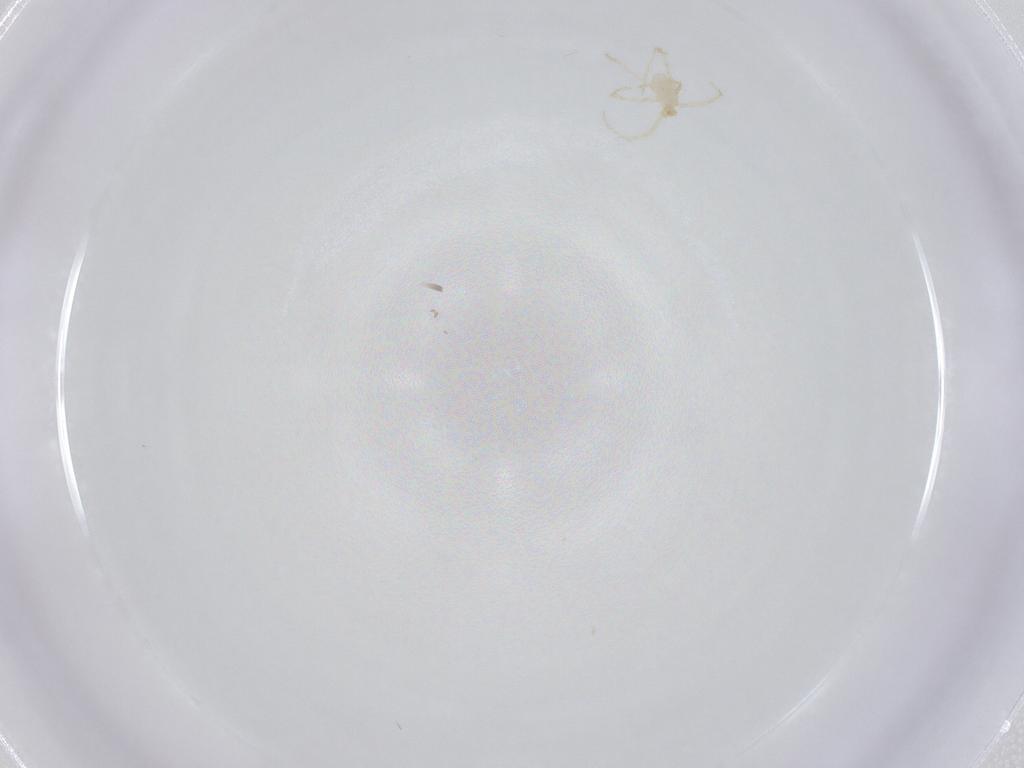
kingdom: Animalia
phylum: Arthropoda
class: Arachnida
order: Trombidiformes
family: Erythraeidae
